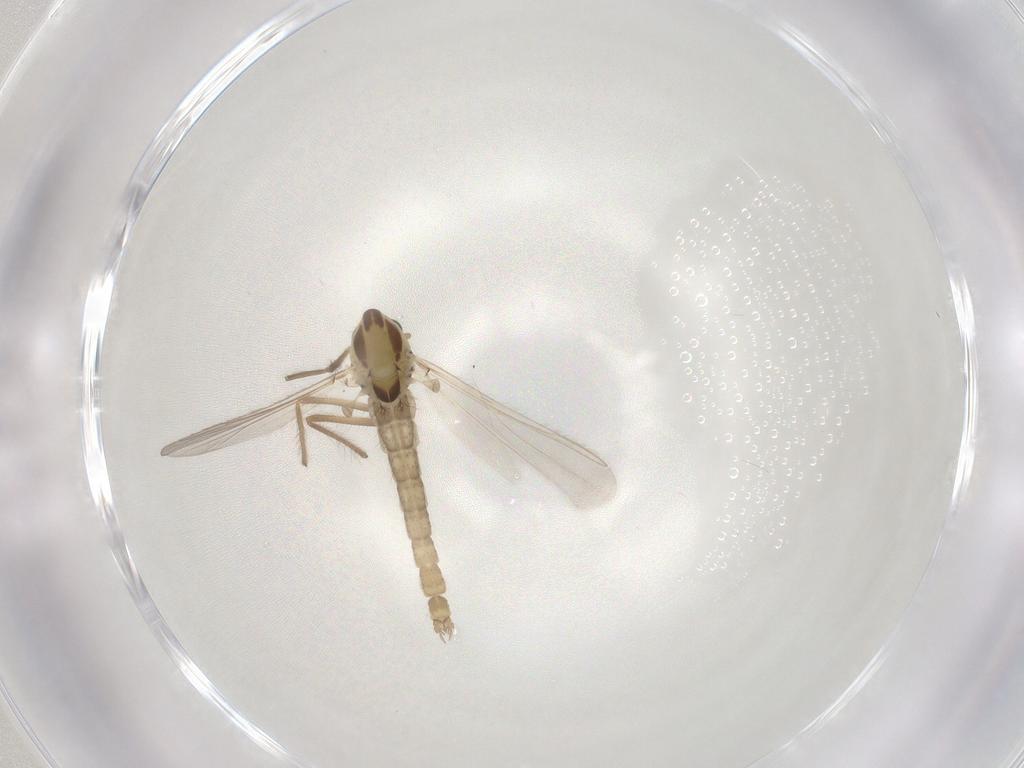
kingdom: Animalia
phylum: Arthropoda
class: Insecta
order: Diptera
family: Chironomidae
